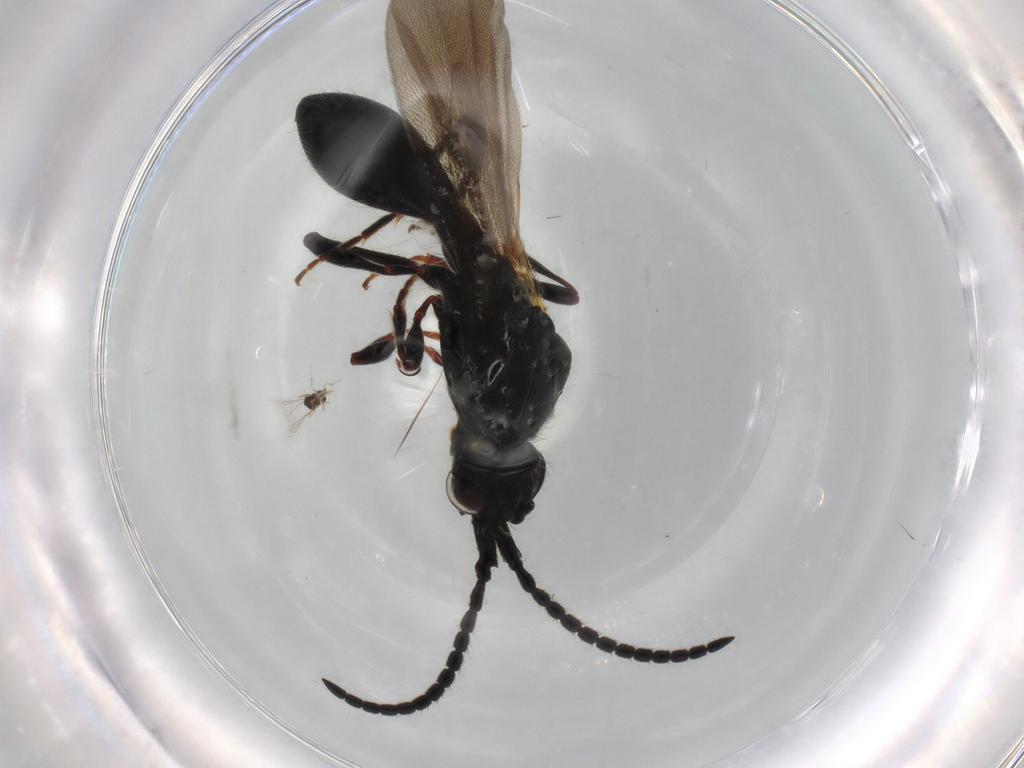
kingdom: Animalia
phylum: Arthropoda
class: Insecta
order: Hymenoptera
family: Diapriidae
